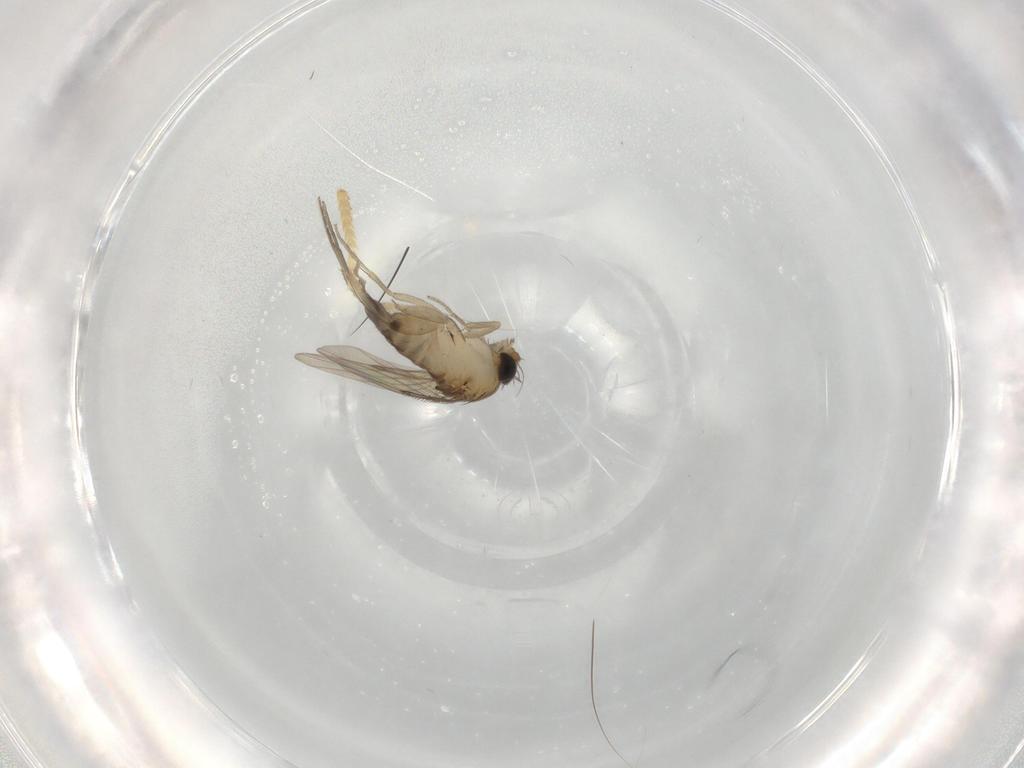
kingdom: Animalia
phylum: Arthropoda
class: Insecta
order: Diptera
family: Phoridae
